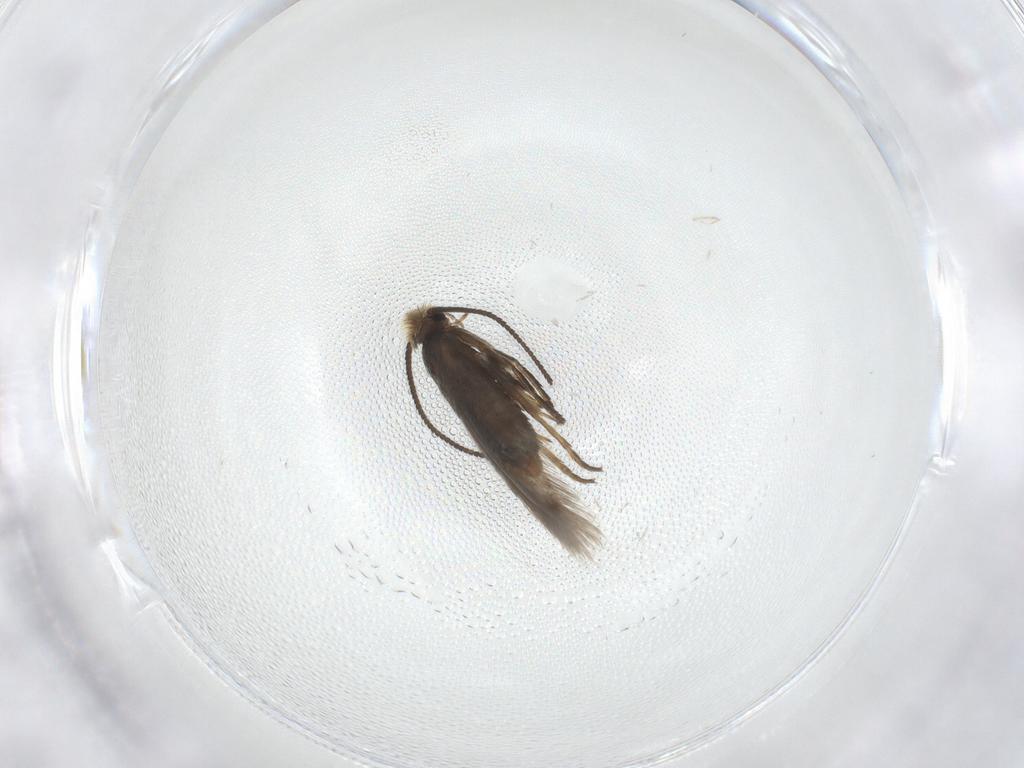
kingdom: Animalia
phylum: Arthropoda
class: Insecta
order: Lepidoptera
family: Nepticulidae
